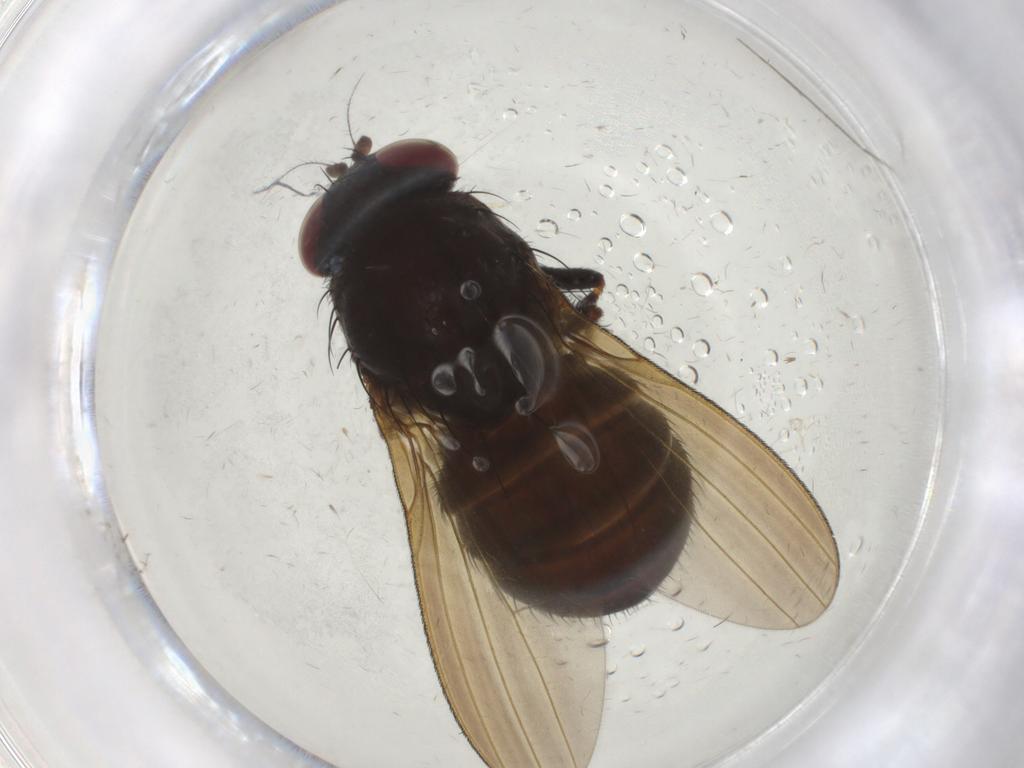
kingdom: Animalia
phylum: Arthropoda
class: Insecta
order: Diptera
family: Lauxaniidae
